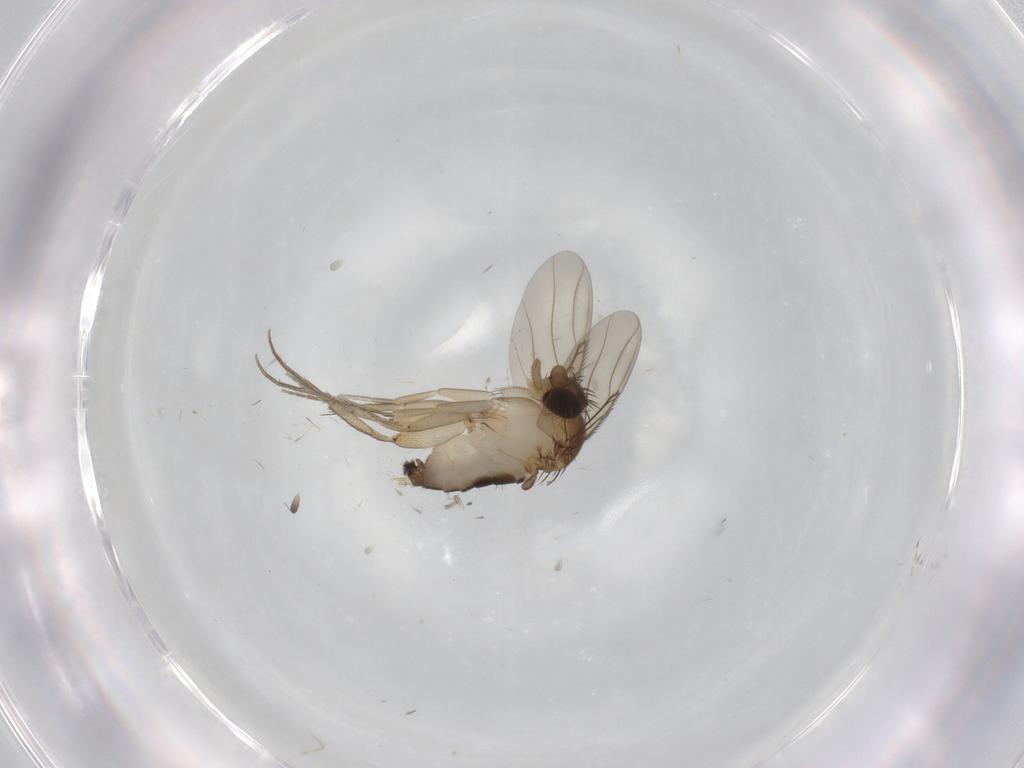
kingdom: Animalia
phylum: Arthropoda
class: Insecta
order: Diptera
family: Phoridae
